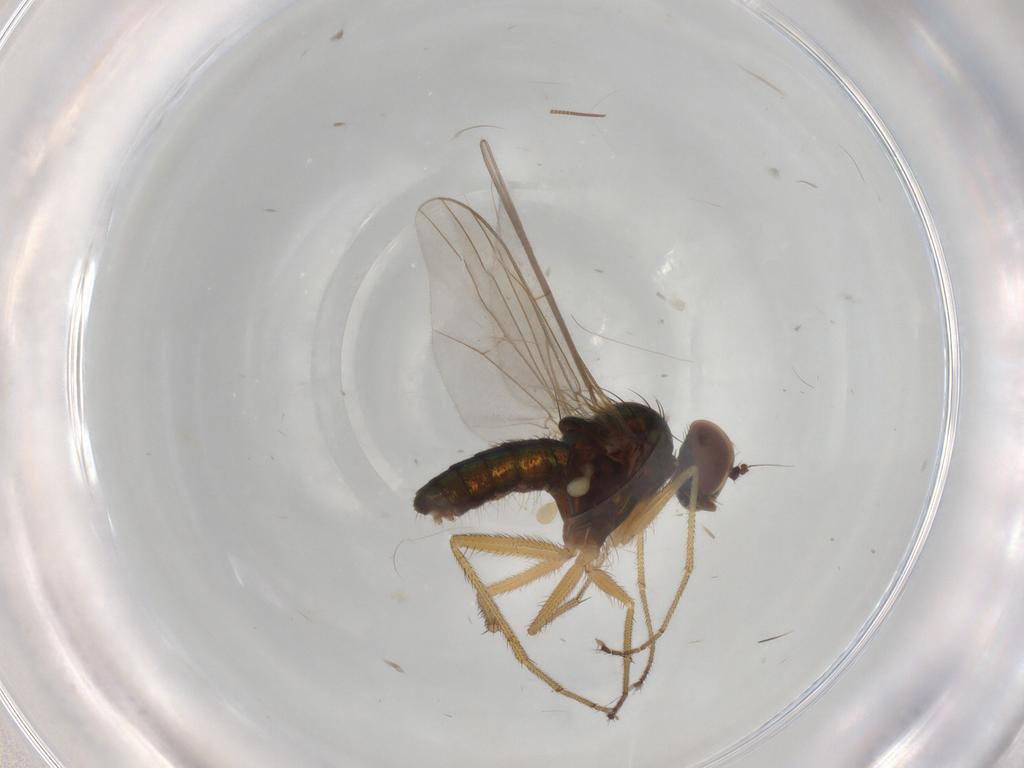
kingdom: Animalia
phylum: Arthropoda
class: Insecta
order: Diptera
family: Dolichopodidae
